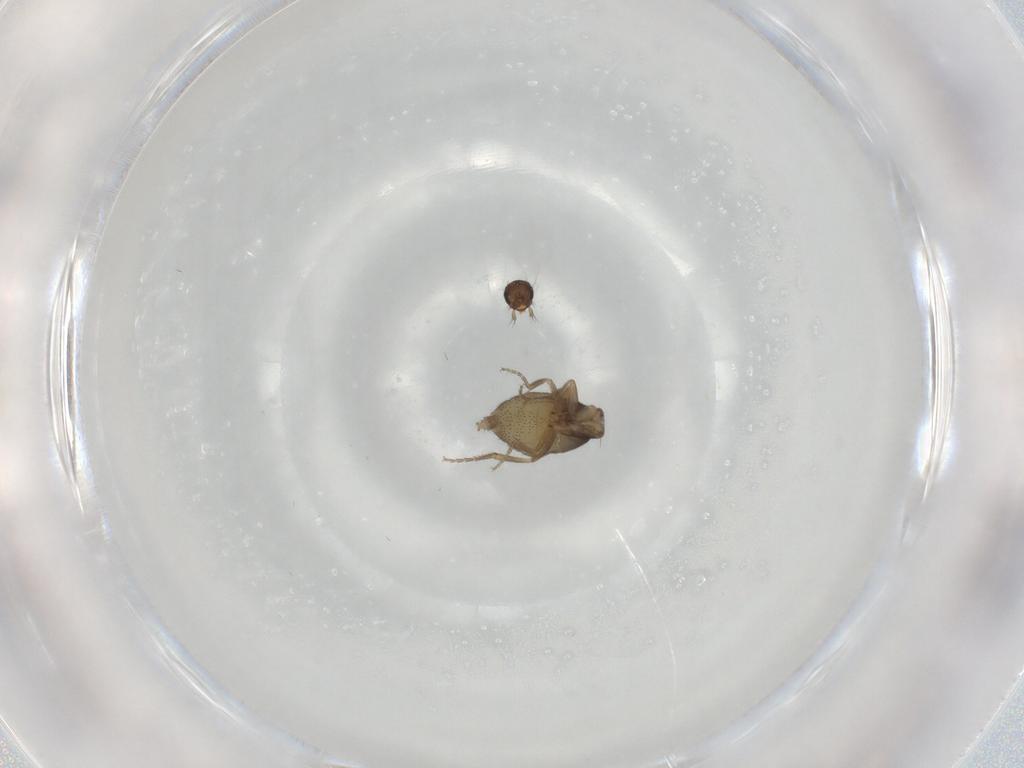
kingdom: Animalia
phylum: Arthropoda
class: Insecta
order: Diptera
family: Phoridae
